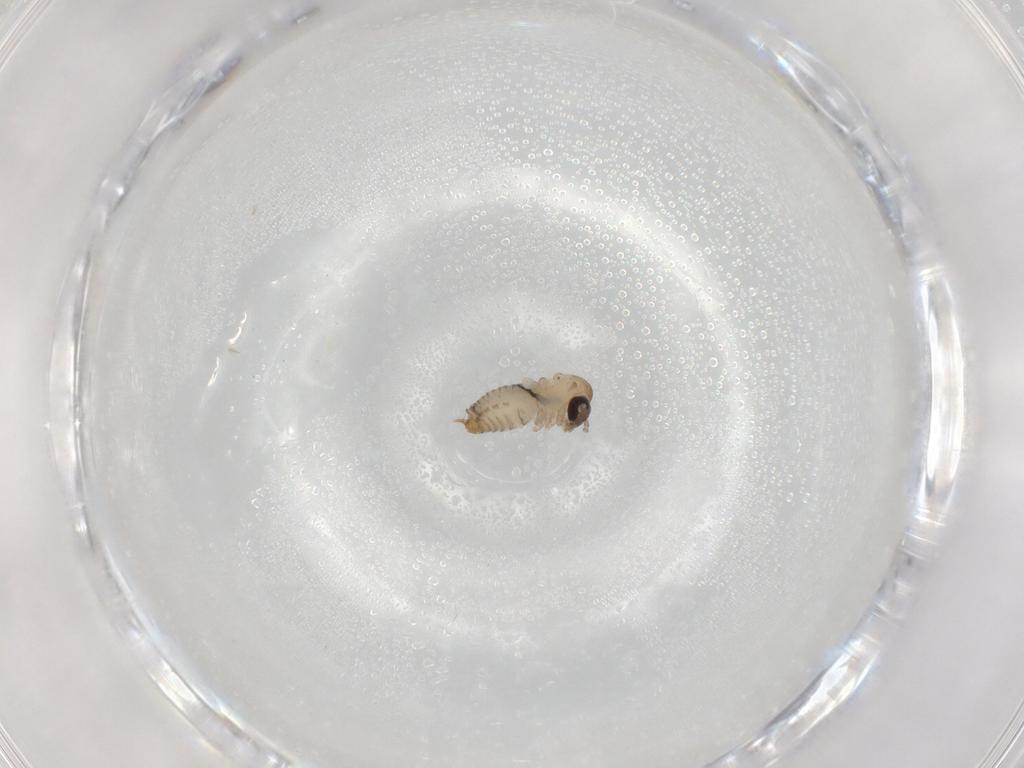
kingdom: Animalia
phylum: Arthropoda
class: Insecta
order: Diptera
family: Psychodidae
